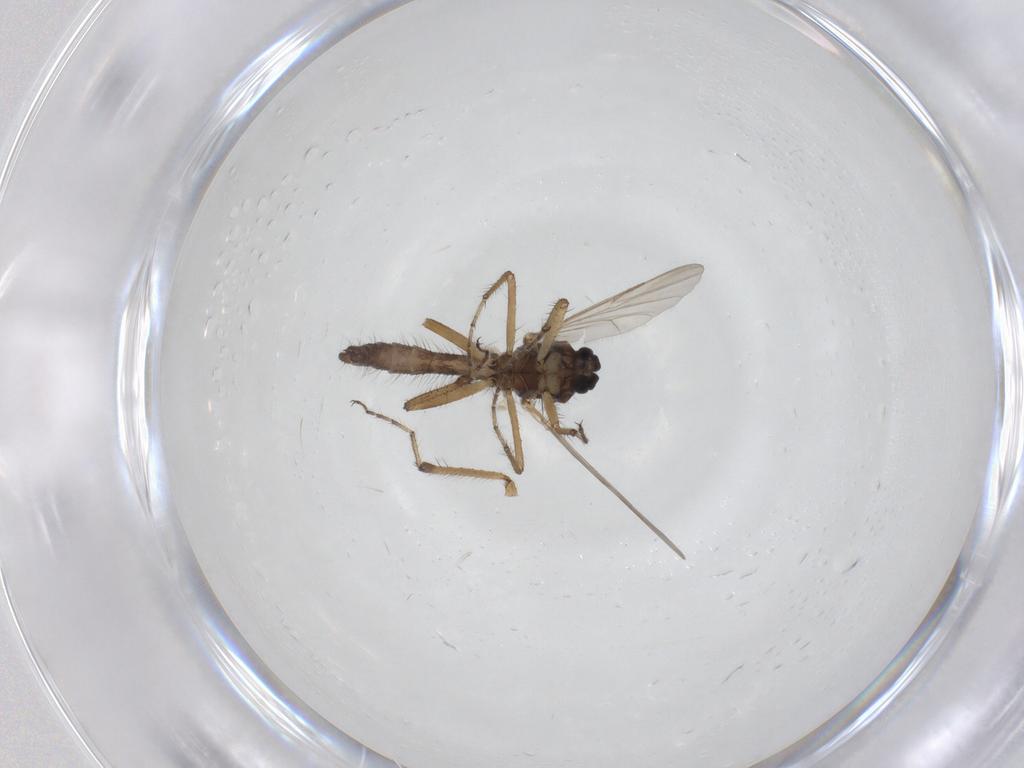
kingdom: Animalia
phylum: Arthropoda
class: Insecta
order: Diptera
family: Ceratopogonidae
